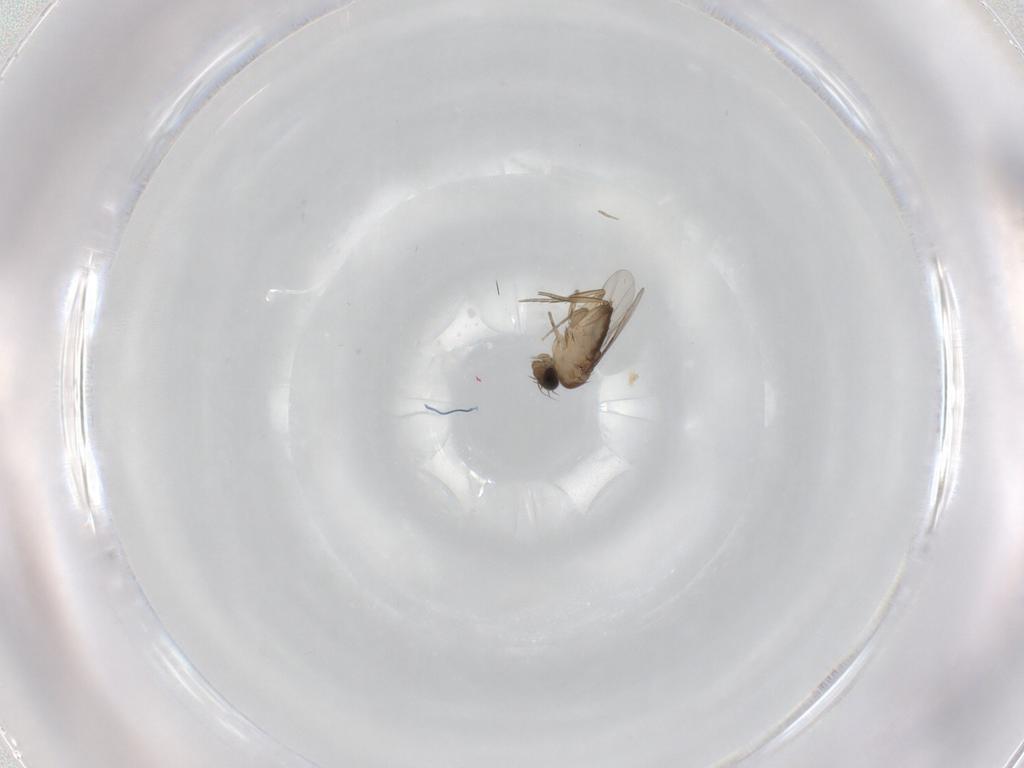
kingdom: Animalia
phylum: Arthropoda
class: Insecta
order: Diptera
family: Phoridae
